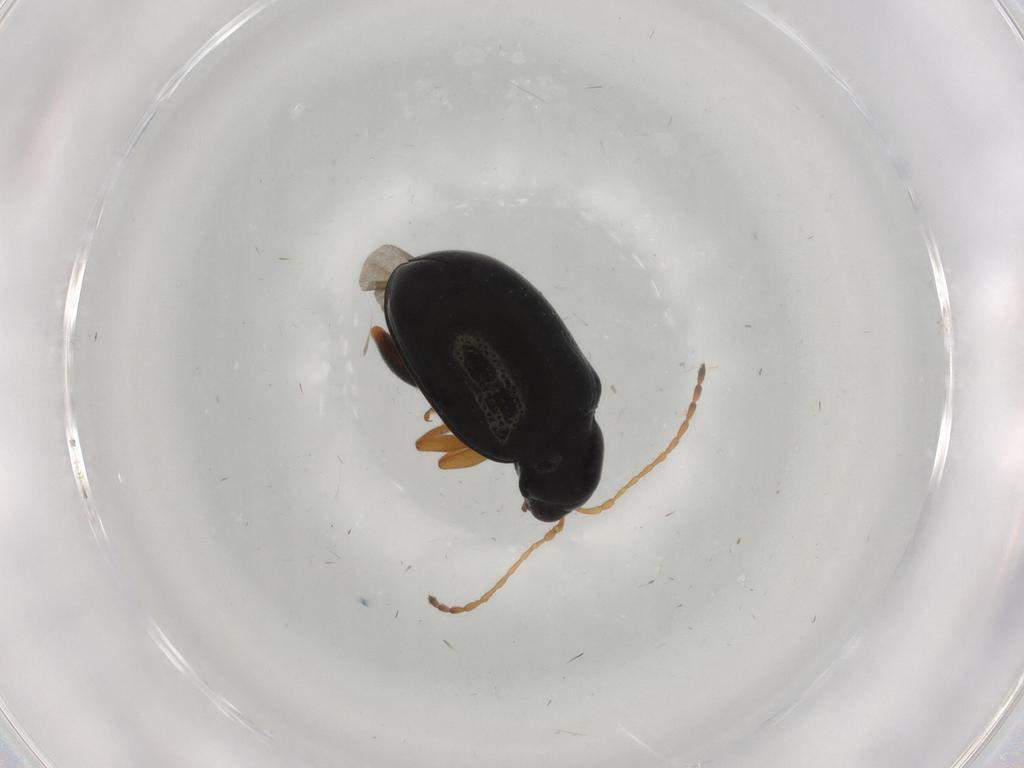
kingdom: Animalia
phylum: Arthropoda
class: Insecta
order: Coleoptera
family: Chrysomelidae
